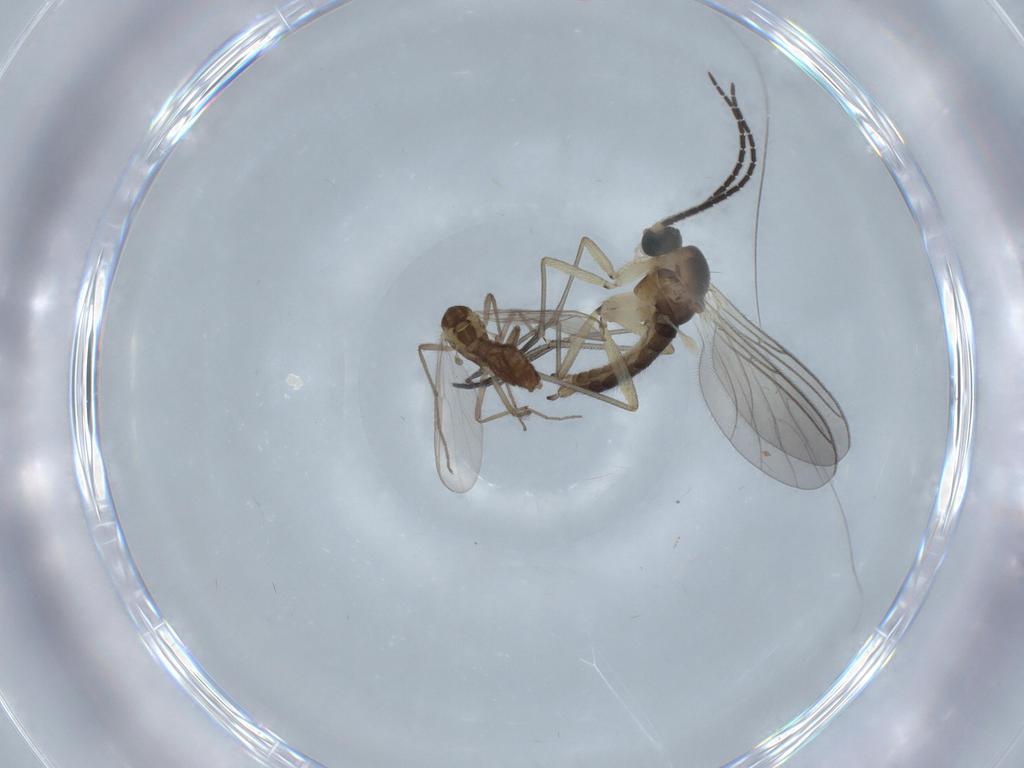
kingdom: Animalia
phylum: Arthropoda
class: Insecta
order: Diptera
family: Sciaridae
